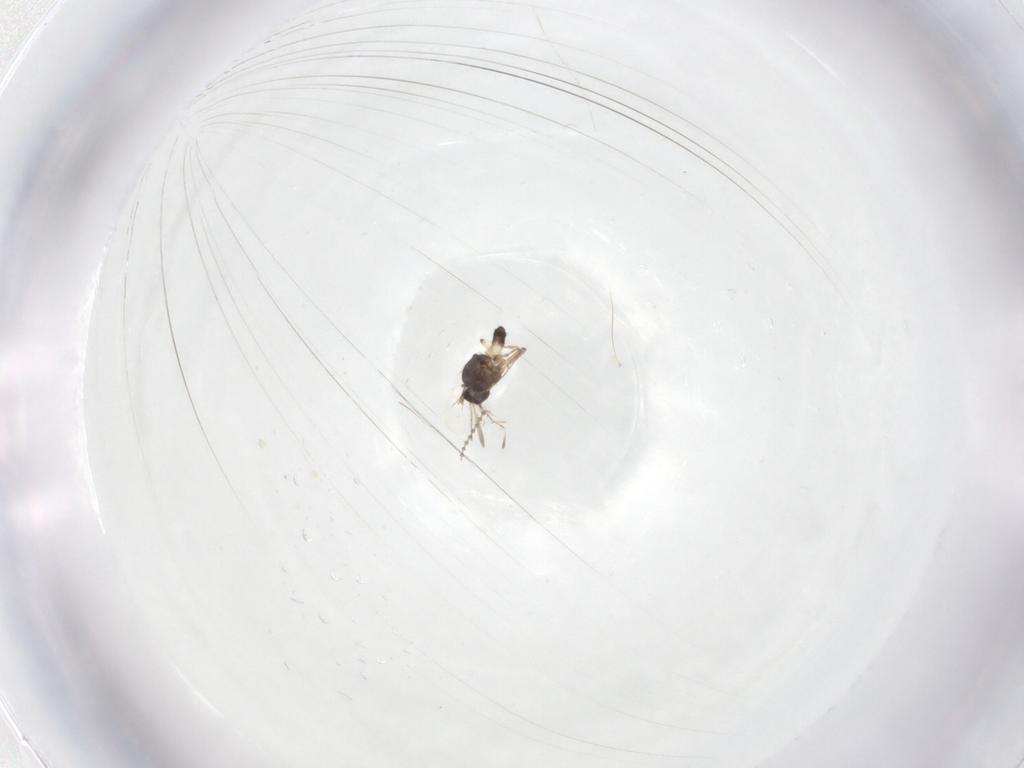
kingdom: Animalia
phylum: Arthropoda
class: Insecta
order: Diptera
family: Ceratopogonidae
